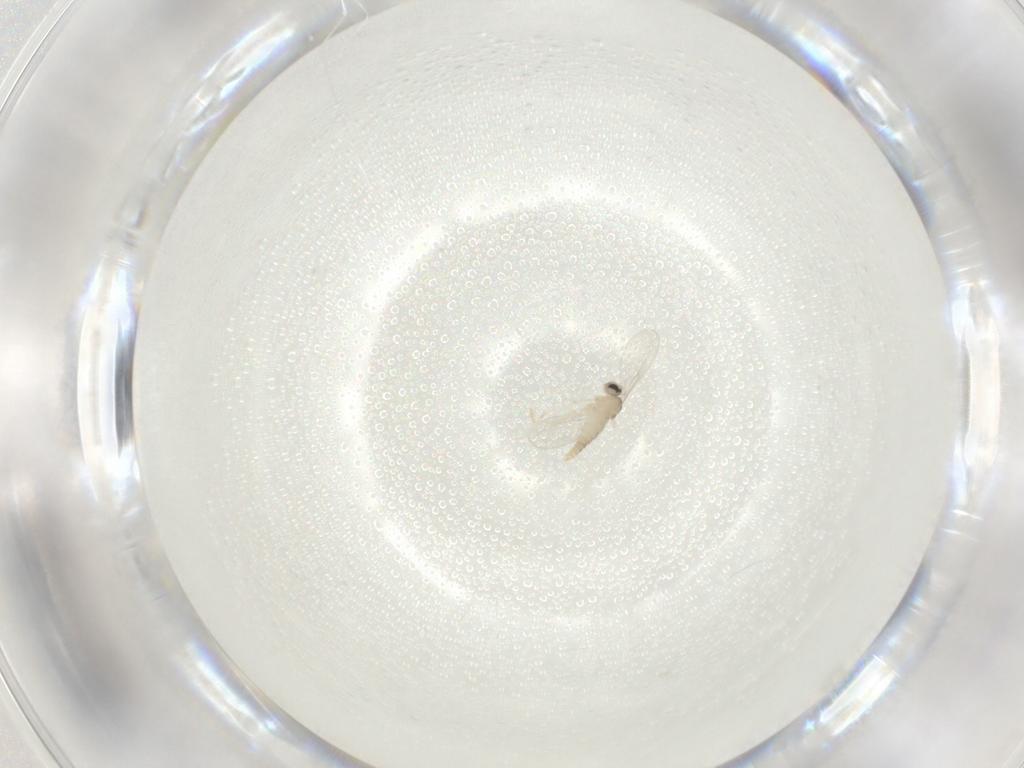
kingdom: Animalia
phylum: Arthropoda
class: Insecta
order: Diptera
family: Cecidomyiidae
